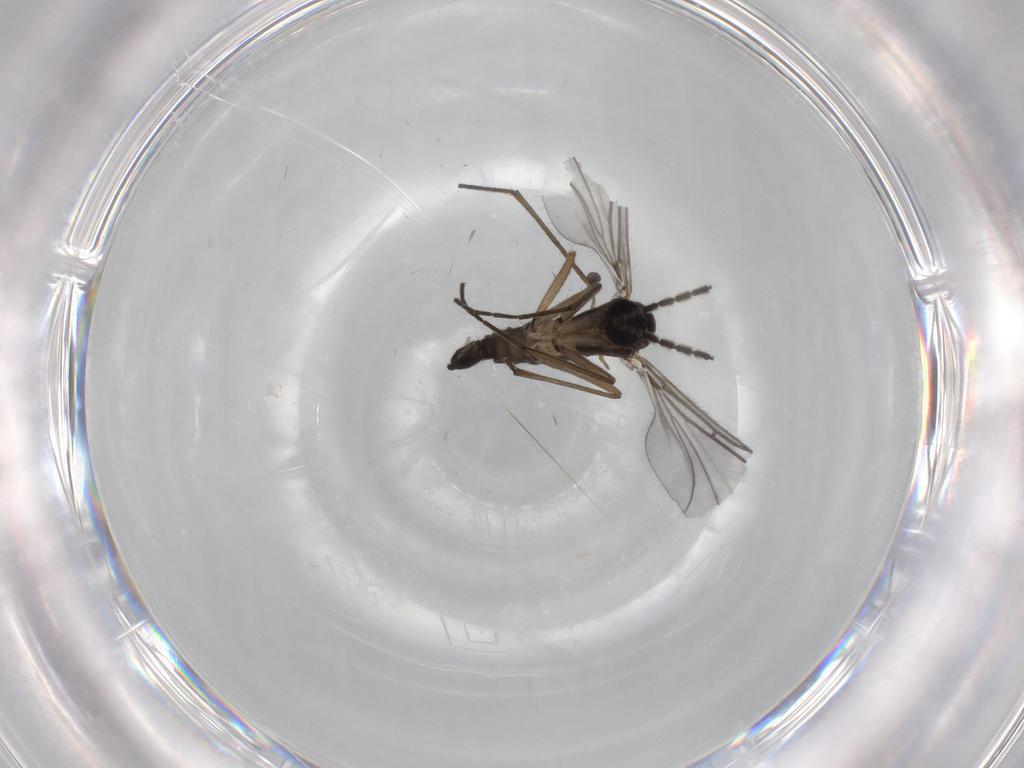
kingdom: Animalia
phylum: Arthropoda
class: Insecta
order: Diptera
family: Sciaridae
